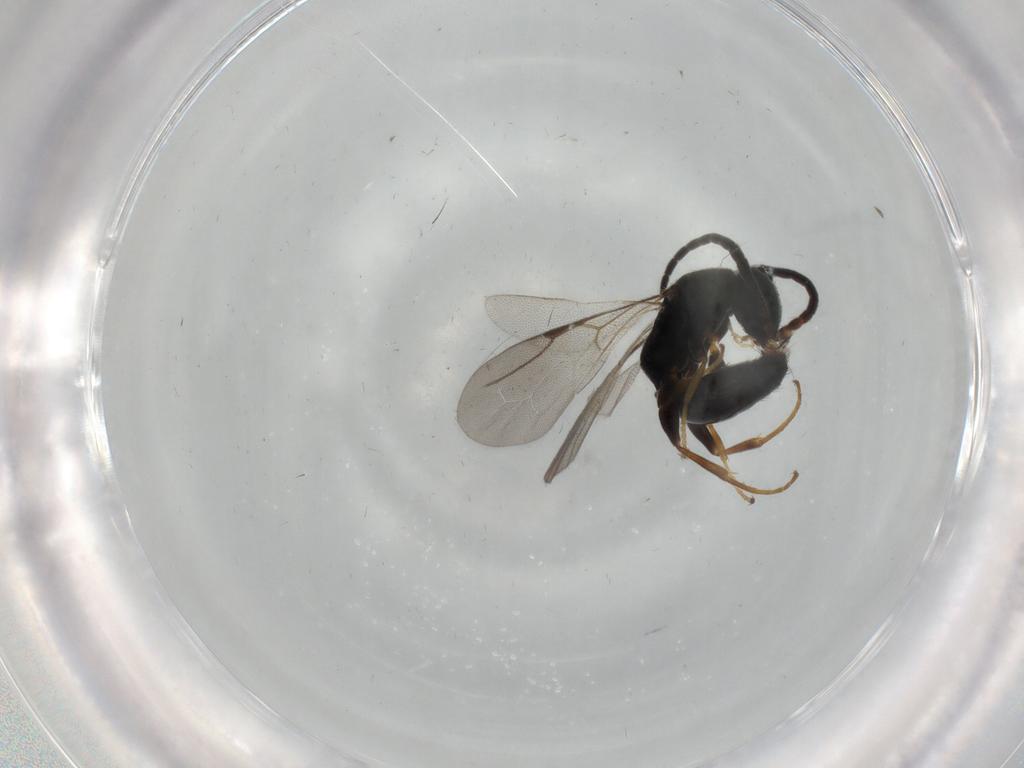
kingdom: Animalia
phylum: Arthropoda
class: Insecta
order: Hymenoptera
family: Bethylidae
